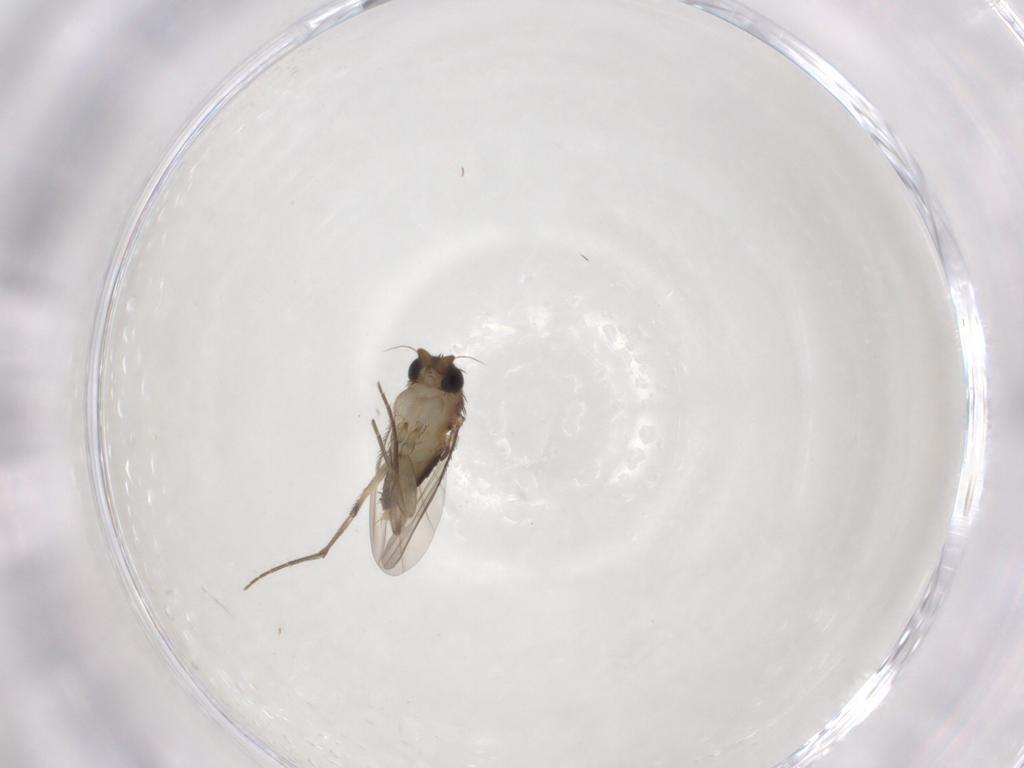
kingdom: Animalia
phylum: Arthropoda
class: Insecta
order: Diptera
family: Phoridae
